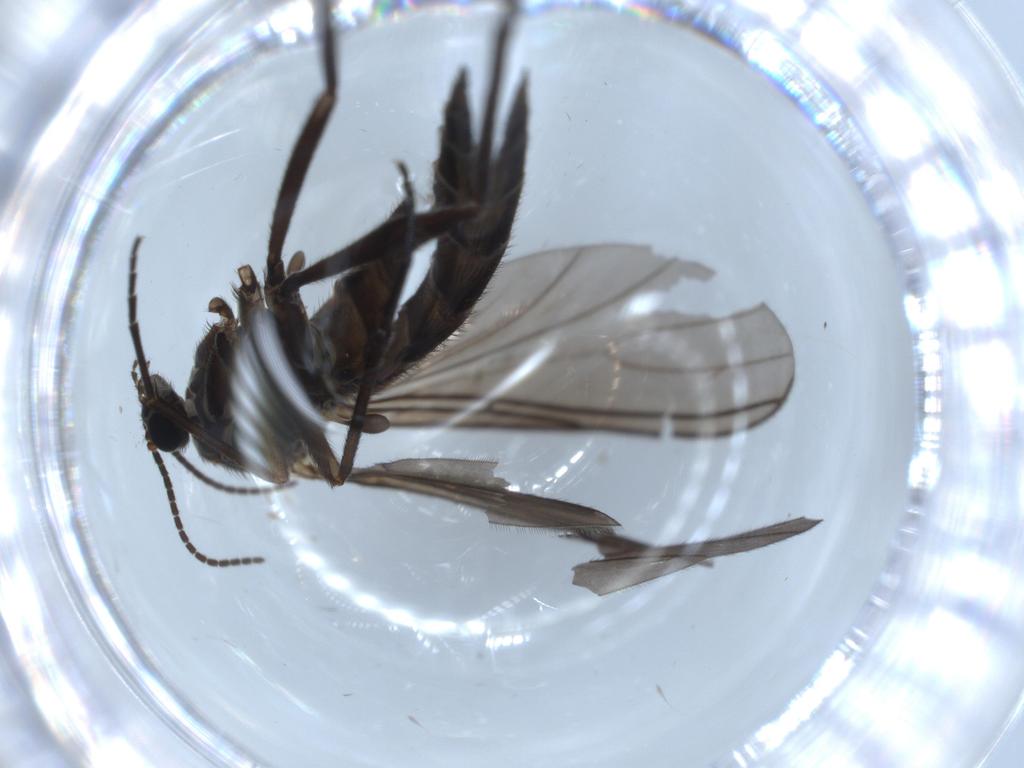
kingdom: Animalia
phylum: Arthropoda
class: Insecta
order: Diptera
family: Sciaridae
